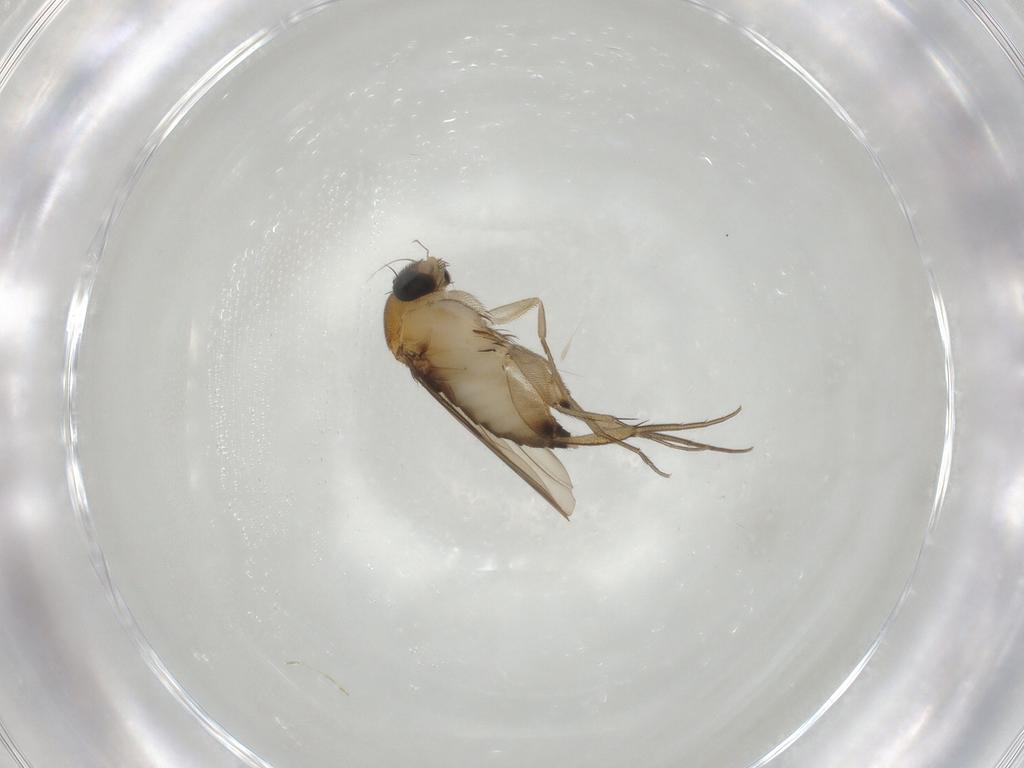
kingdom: Animalia
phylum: Arthropoda
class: Insecta
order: Diptera
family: Phoridae
